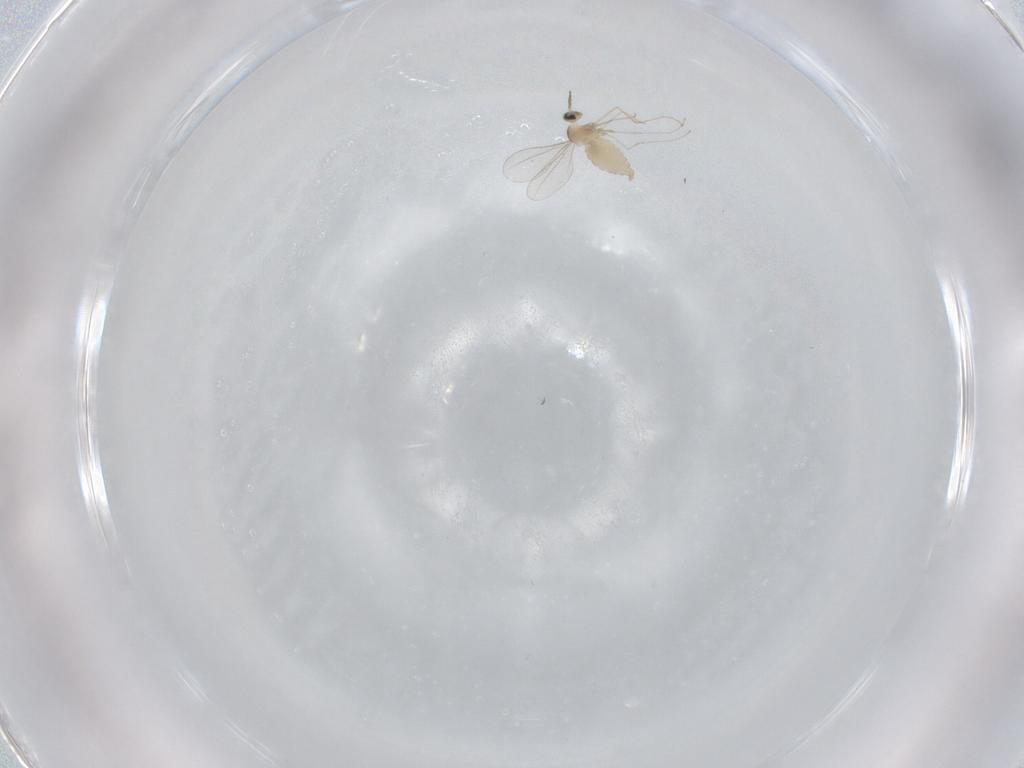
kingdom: Animalia
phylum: Arthropoda
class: Insecta
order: Diptera
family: Cecidomyiidae
